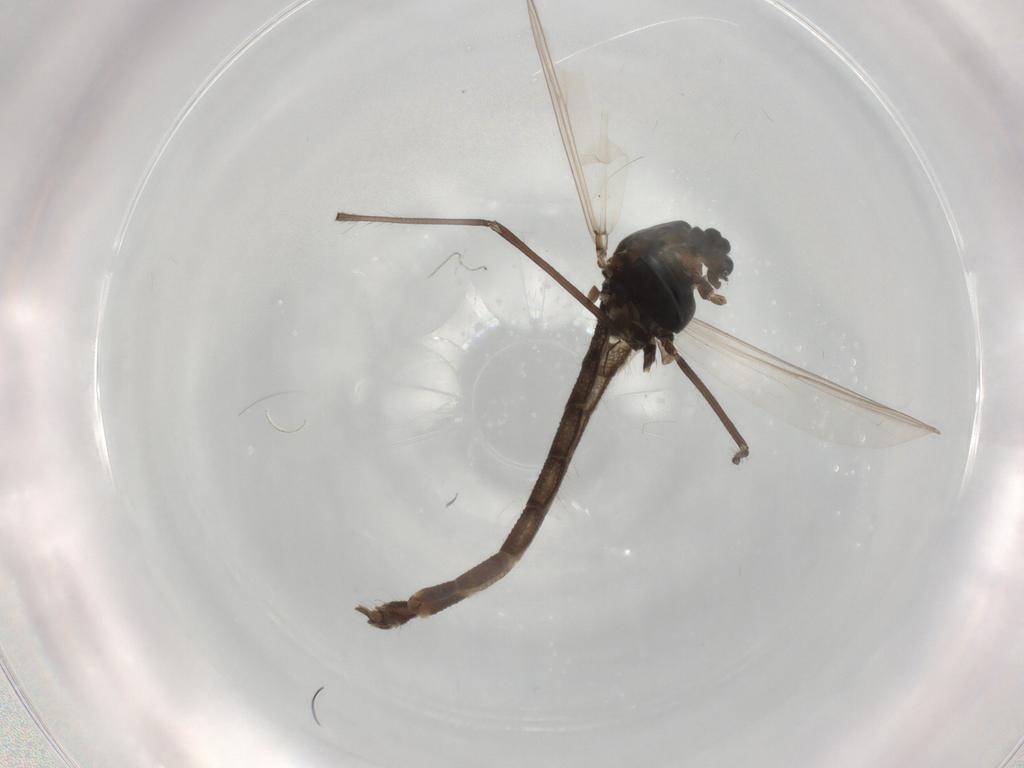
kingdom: Animalia
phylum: Arthropoda
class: Insecta
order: Diptera
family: Chironomidae
